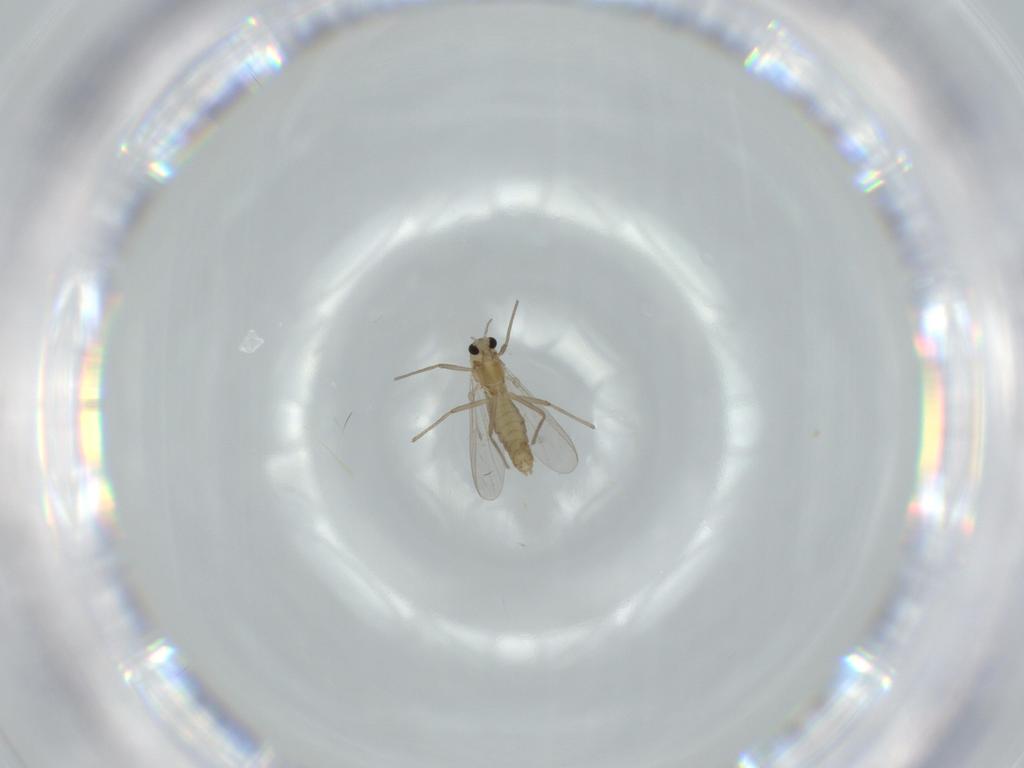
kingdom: Animalia
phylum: Arthropoda
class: Insecta
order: Diptera
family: Chironomidae
